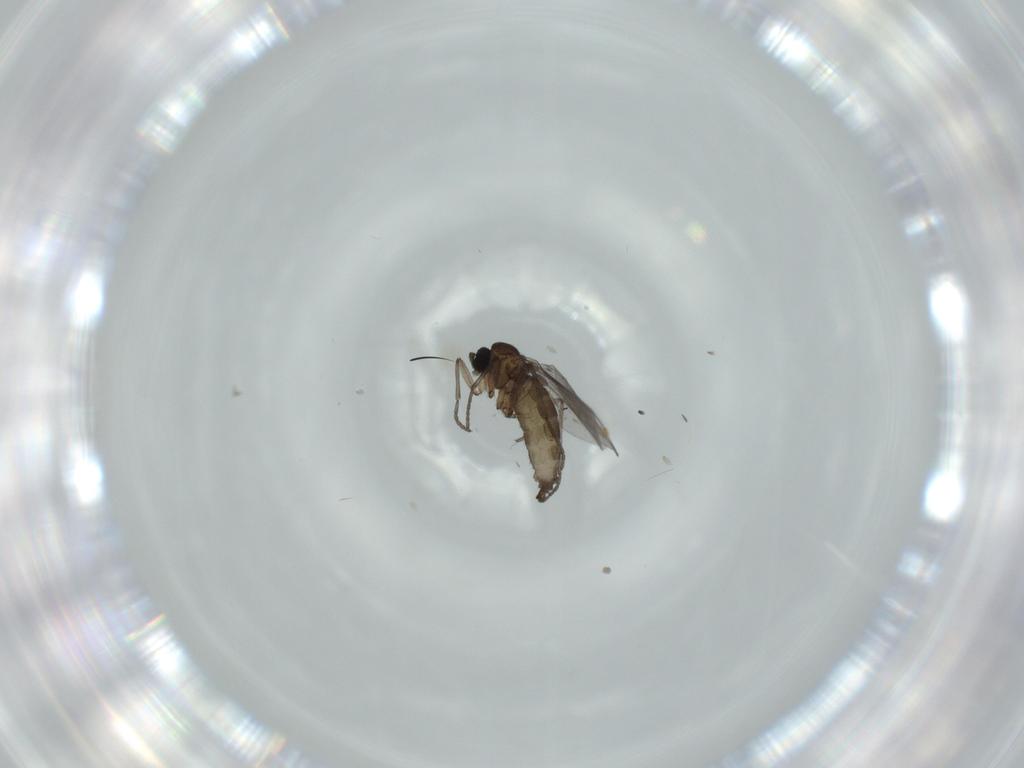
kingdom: Animalia
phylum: Arthropoda
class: Insecta
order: Diptera
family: Phoridae
